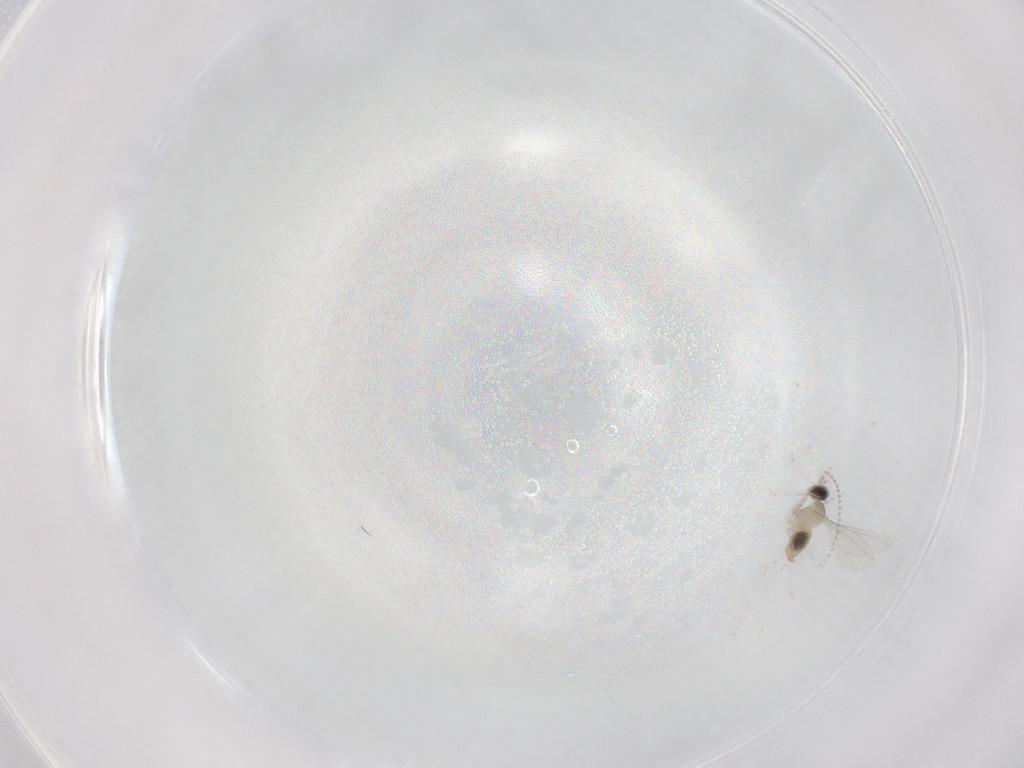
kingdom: Animalia
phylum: Arthropoda
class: Insecta
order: Diptera
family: Cecidomyiidae
